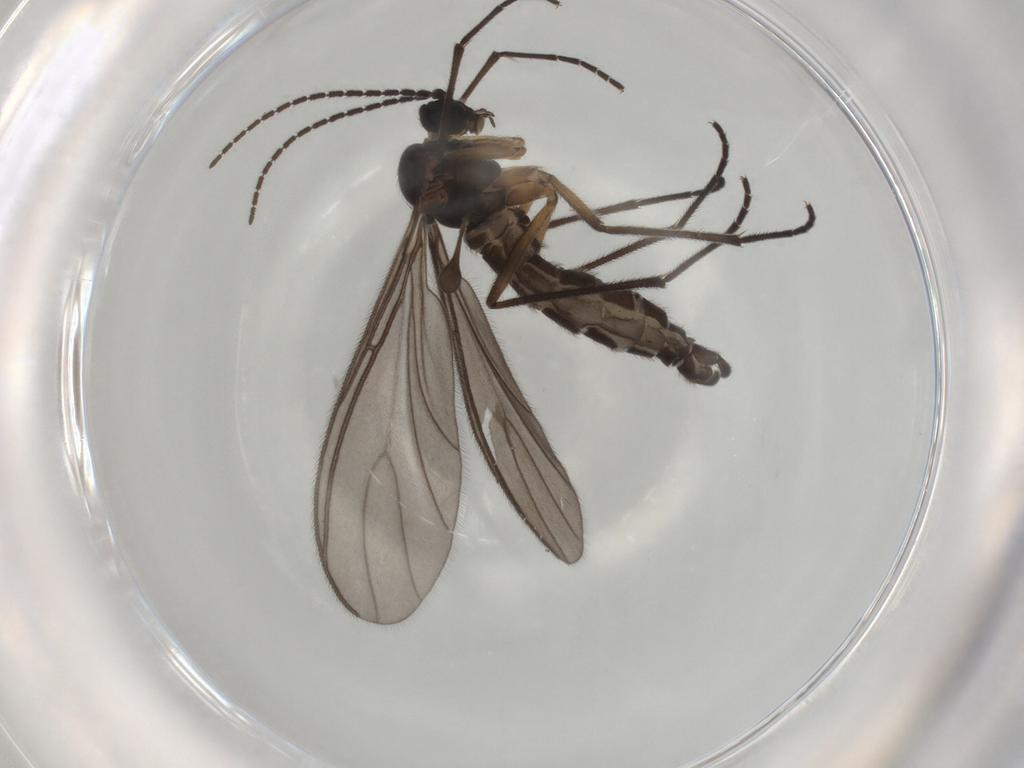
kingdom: Animalia
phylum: Arthropoda
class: Insecta
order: Diptera
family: Sciaridae
